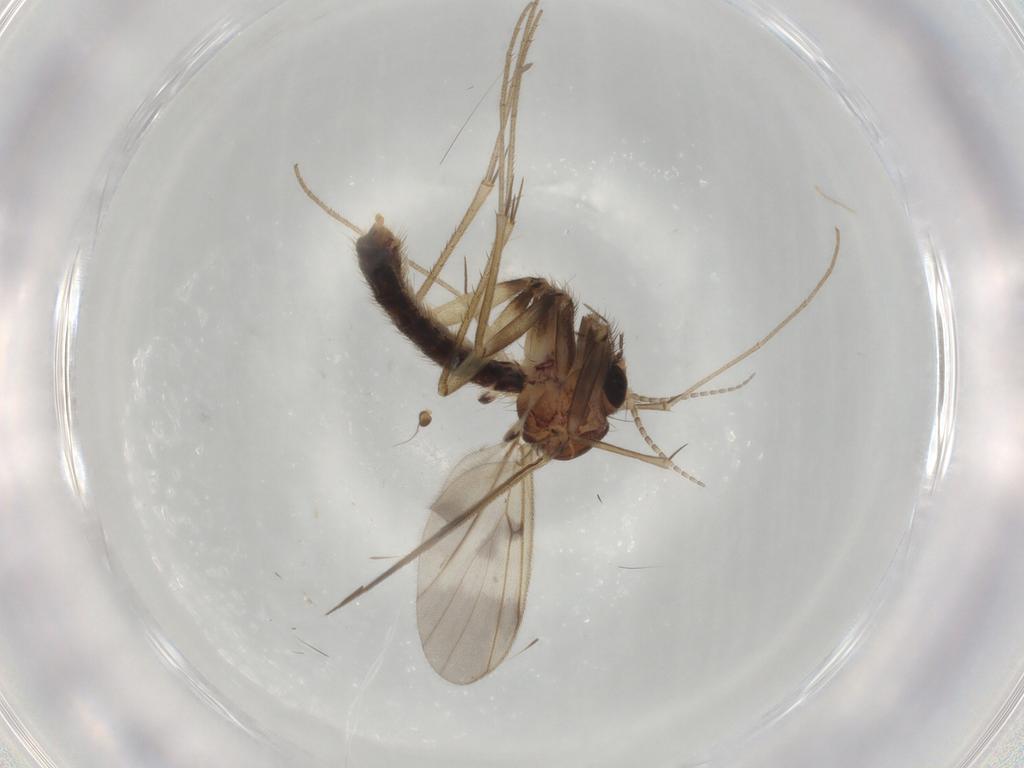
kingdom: Animalia
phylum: Arthropoda
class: Insecta
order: Diptera
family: Mycetophilidae
